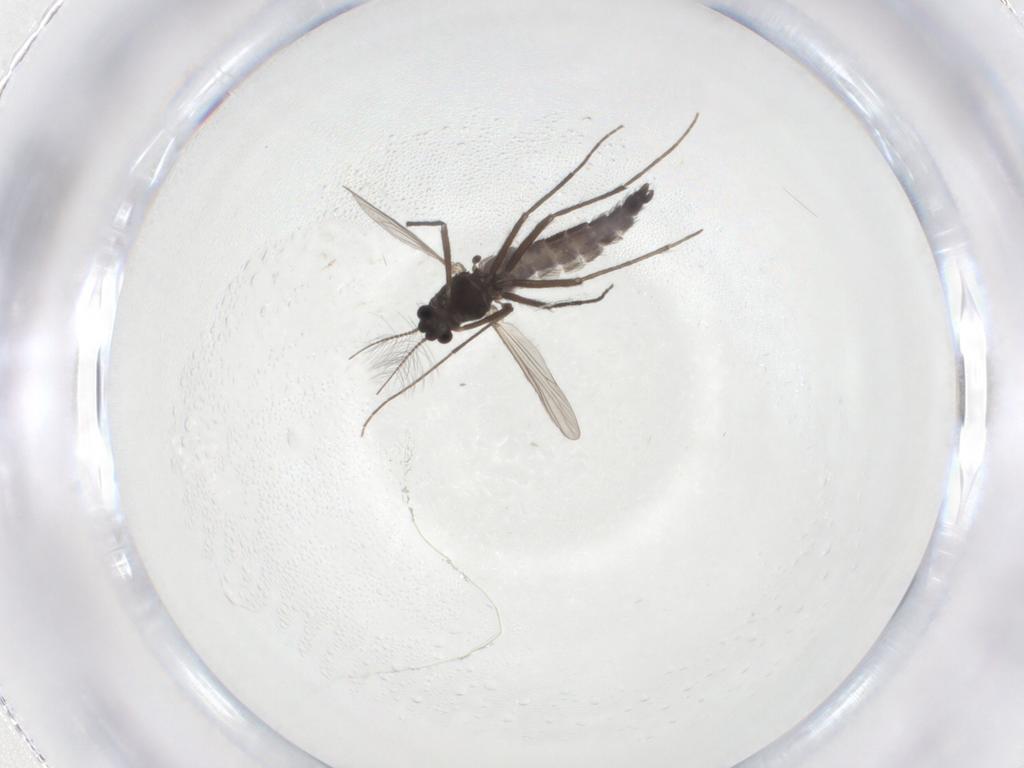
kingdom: Animalia
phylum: Arthropoda
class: Insecta
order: Diptera
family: Chironomidae
